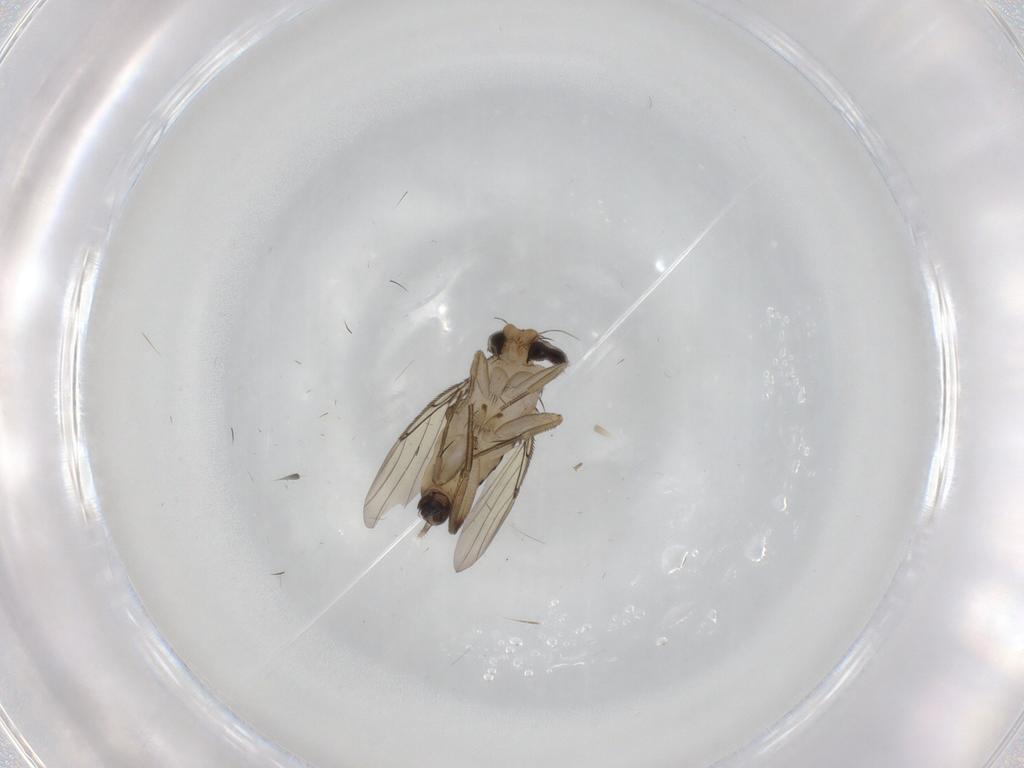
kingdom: Animalia
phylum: Arthropoda
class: Insecta
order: Diptera
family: Phoridae
